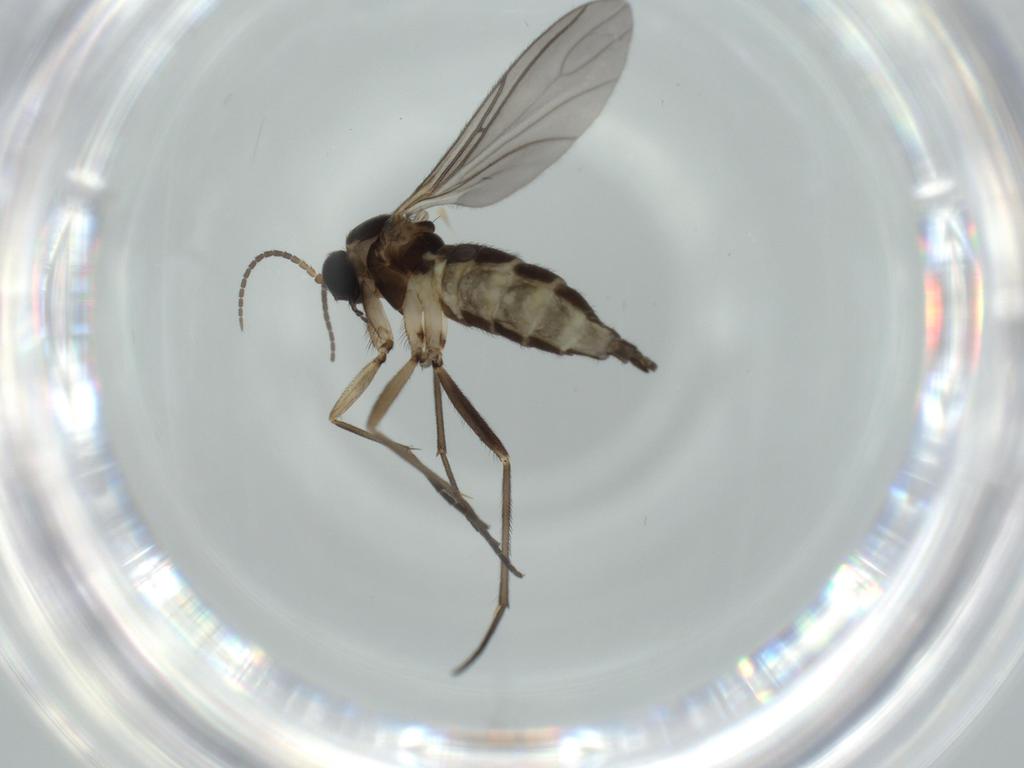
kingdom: Animalia
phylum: Arthropoda
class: Insecta
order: Diptera
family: Sciaridae
